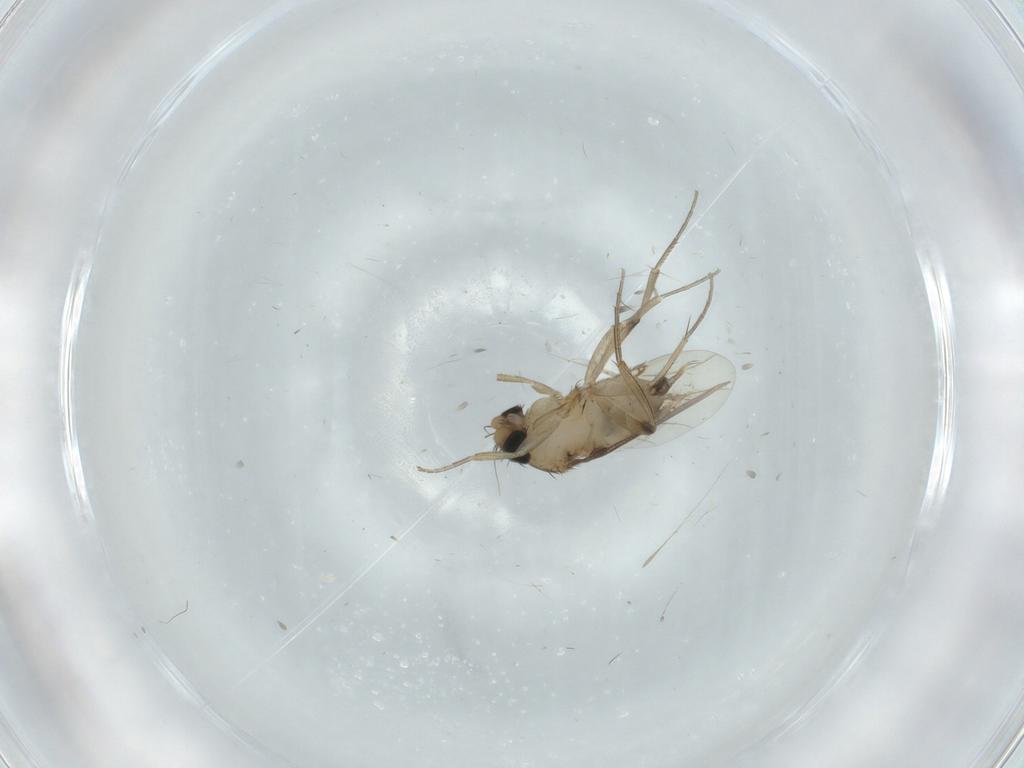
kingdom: Animalia
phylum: Arthropoda
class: Insecta
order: Diptera
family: Phoridae
